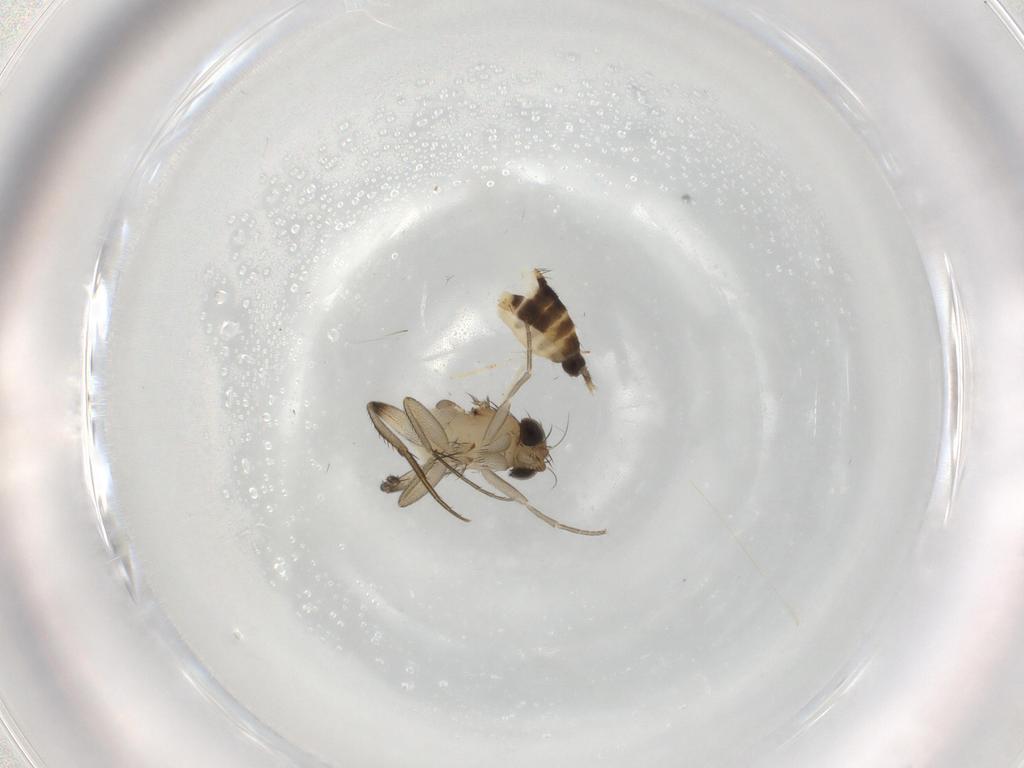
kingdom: Animalia
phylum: Arthropoda
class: Insecta
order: Diptera
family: Phoridae
